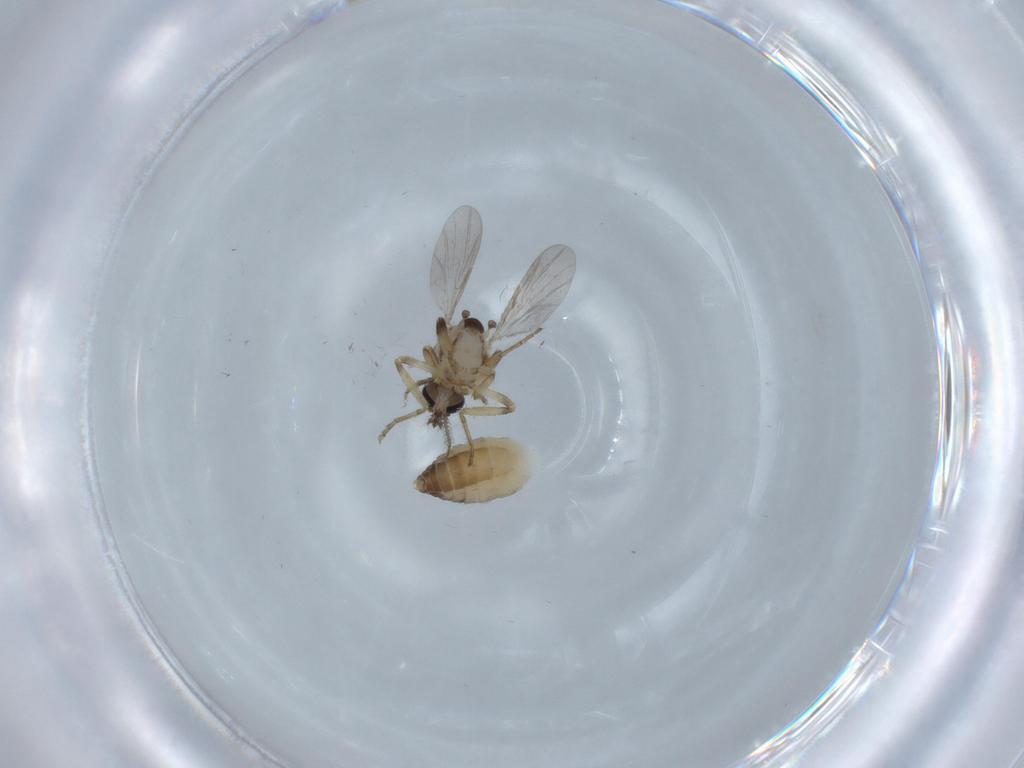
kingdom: Animalia
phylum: Arthropoda
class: Insecta
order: Diptera
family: Ceratopogonidae
